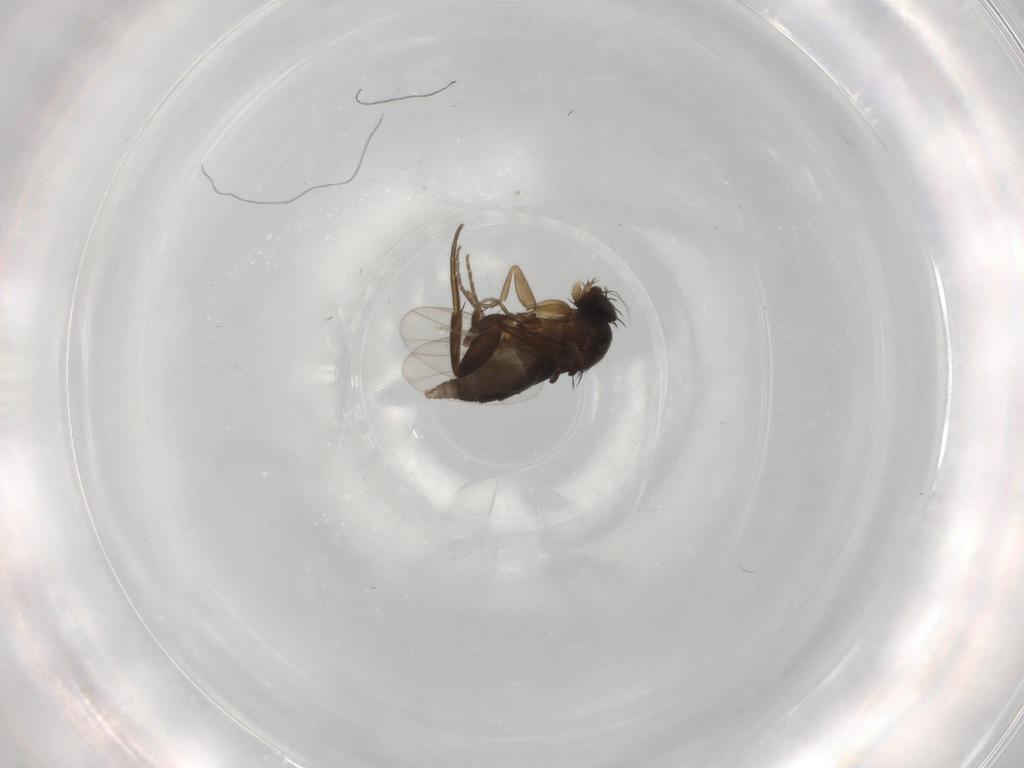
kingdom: Animalia
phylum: Arthropoda
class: Insecta
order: Diptera
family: Phoridae
